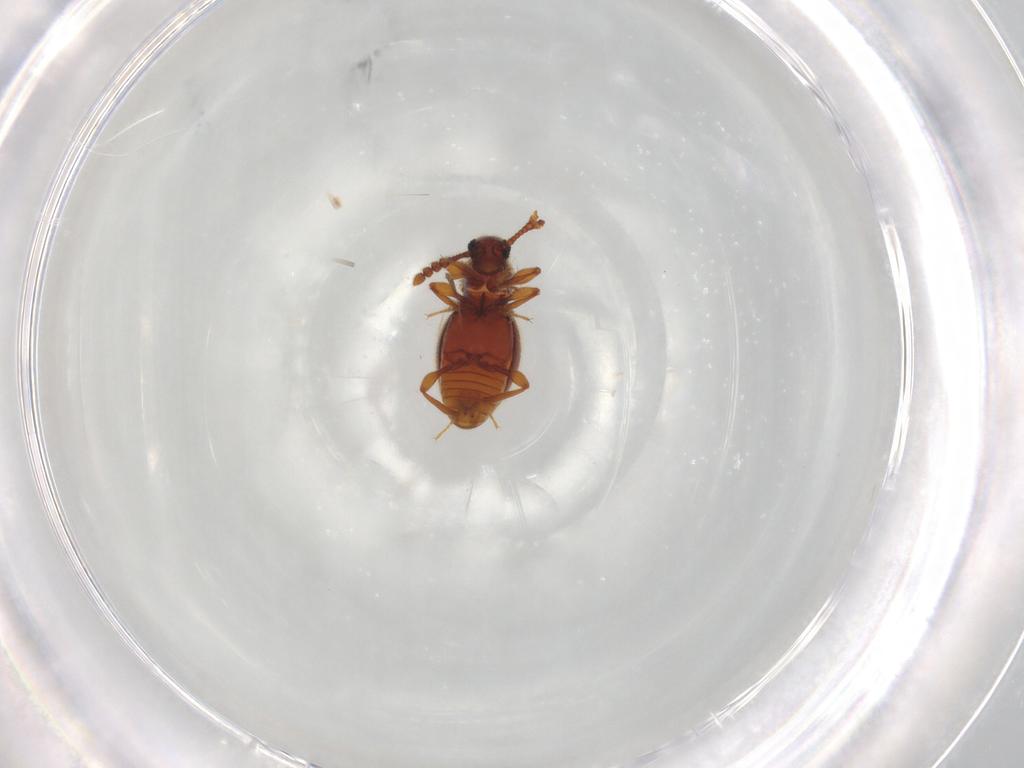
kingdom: Animalia
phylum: Arthropoda
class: Insecta
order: Coleoptera
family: Staphylinidae
